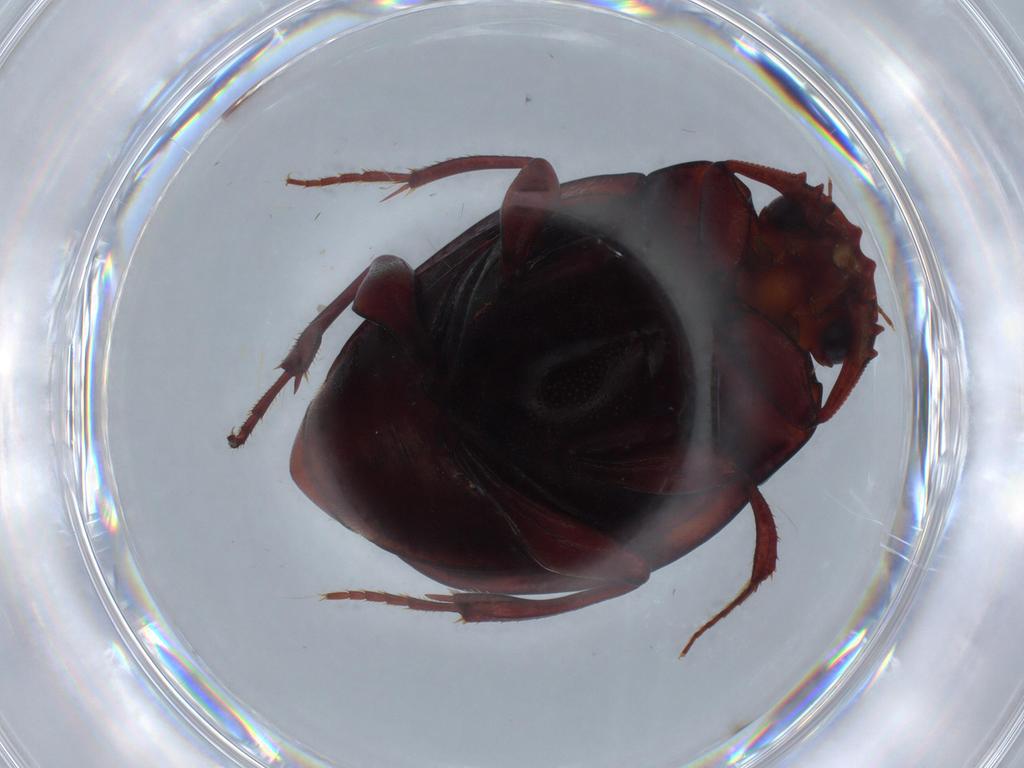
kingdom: Animalia
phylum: Arthropoda
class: Insecta
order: Coleoptera
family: Scarabaeidae
